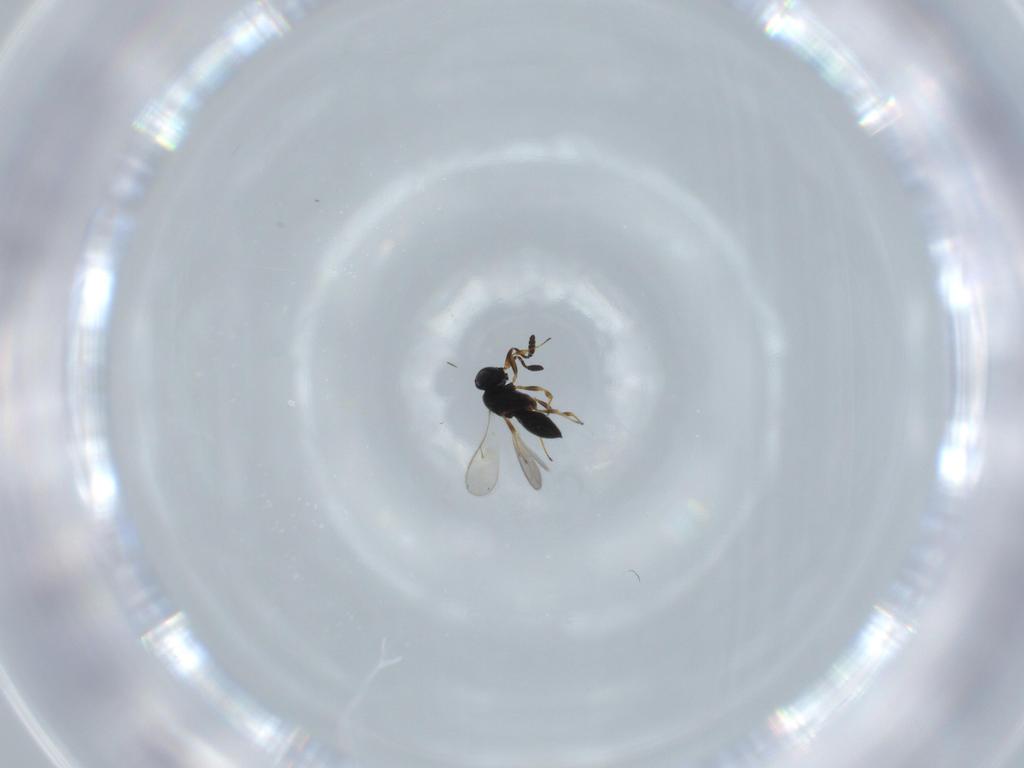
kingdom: Animalia
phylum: Arthropoda
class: Insecta
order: Hymenoptera
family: Scelionidae
